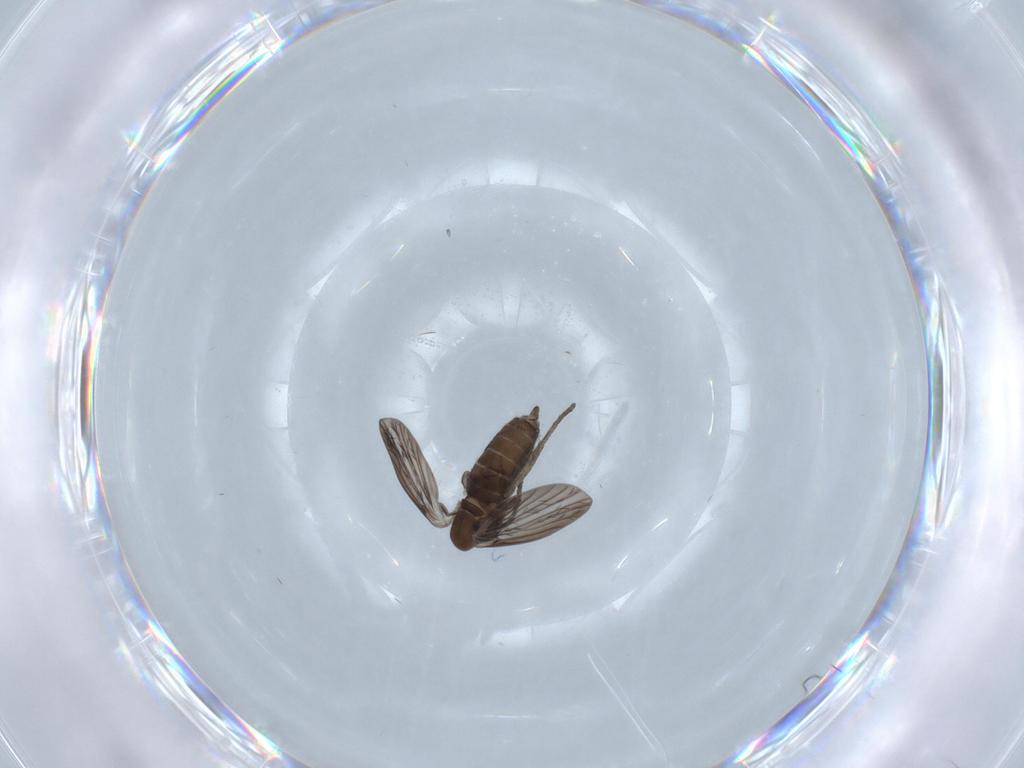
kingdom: Animalia
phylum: Arthropoda
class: Insecta
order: Diptera
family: Phoridae
